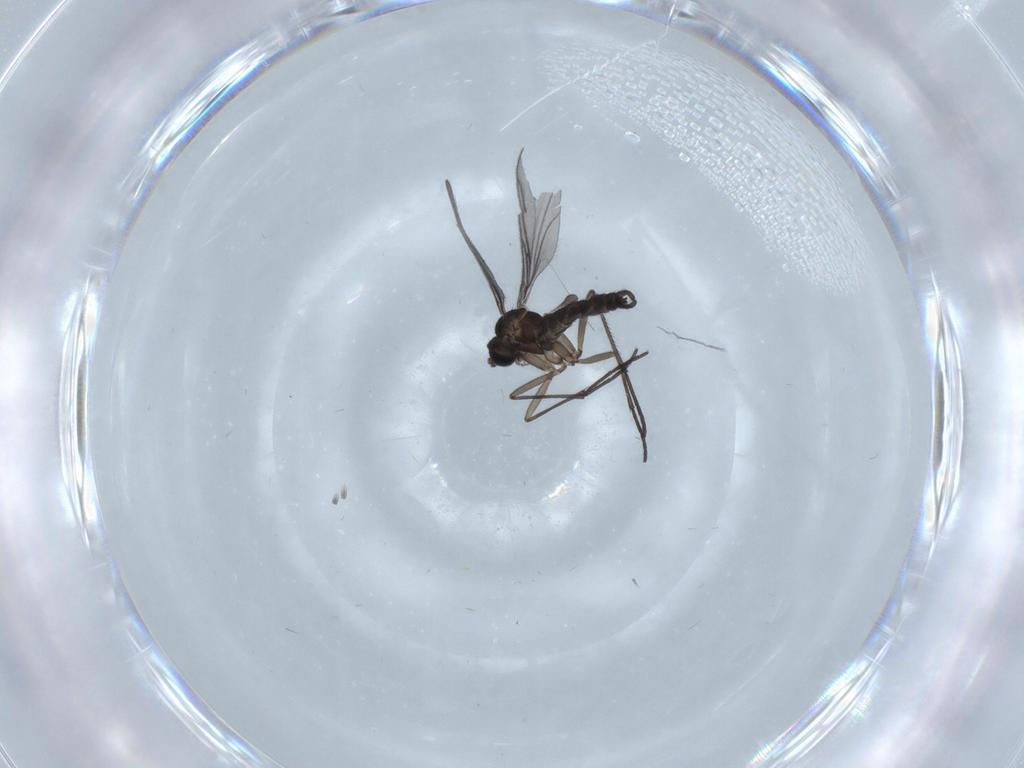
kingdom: Animalia
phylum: Arthropoda
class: Insecta
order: Diptera
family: Sciaridae
